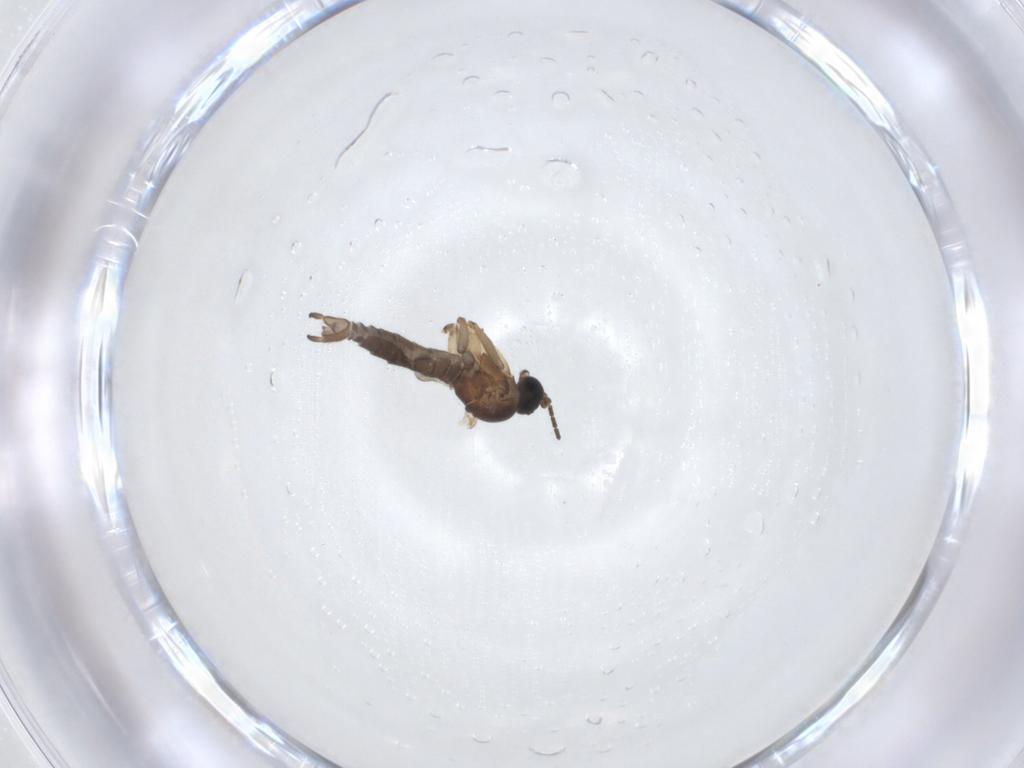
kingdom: Animalia
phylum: Arthropoda
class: Insecta
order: Diptera
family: Sciaridae
